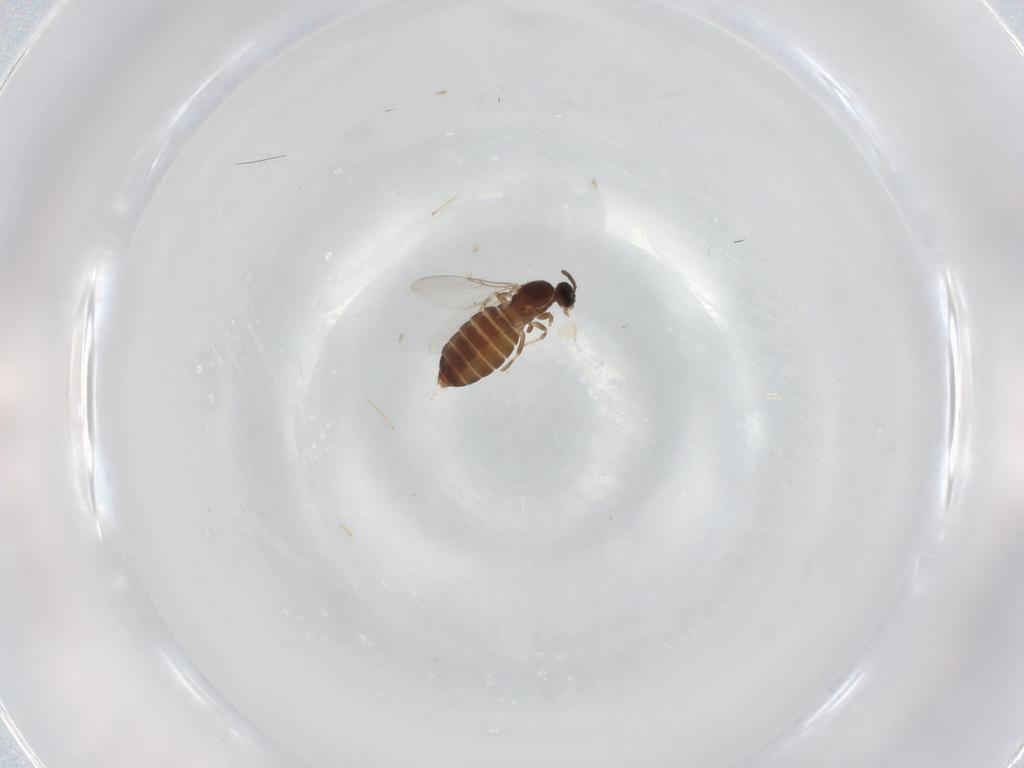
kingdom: Animalia
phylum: Arthropoda
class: Insecta
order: Diptera
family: Scatopsidae
